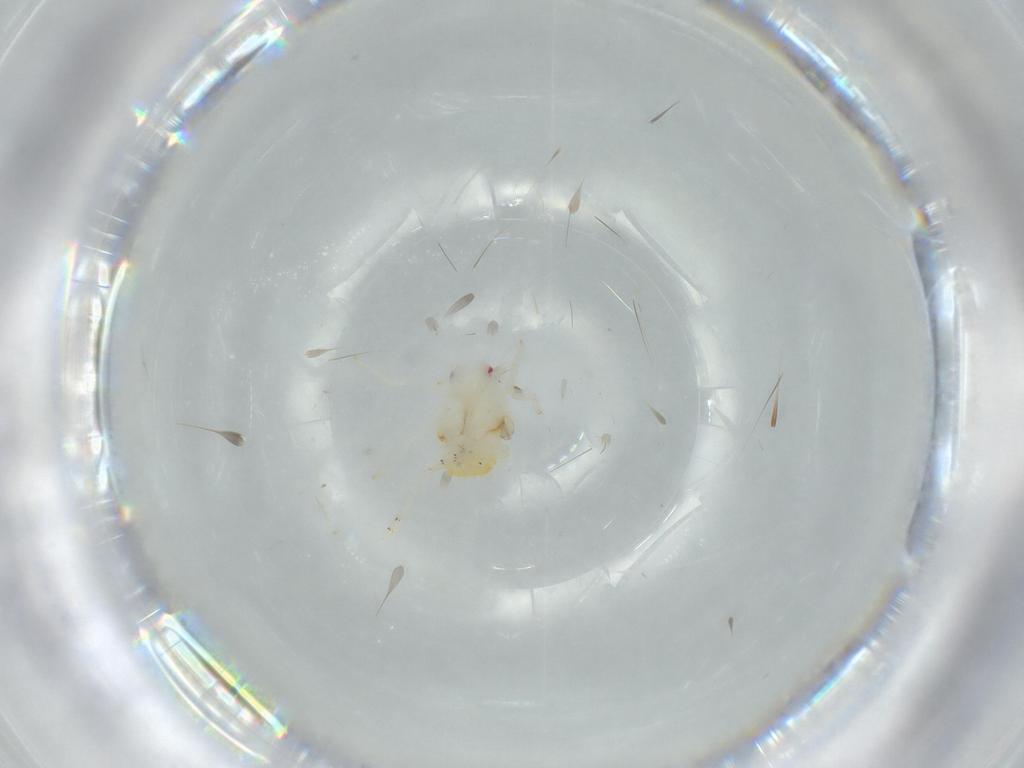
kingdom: Animalia
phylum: Arthropoda
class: Insecta
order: Hemiptera
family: Flatidae
